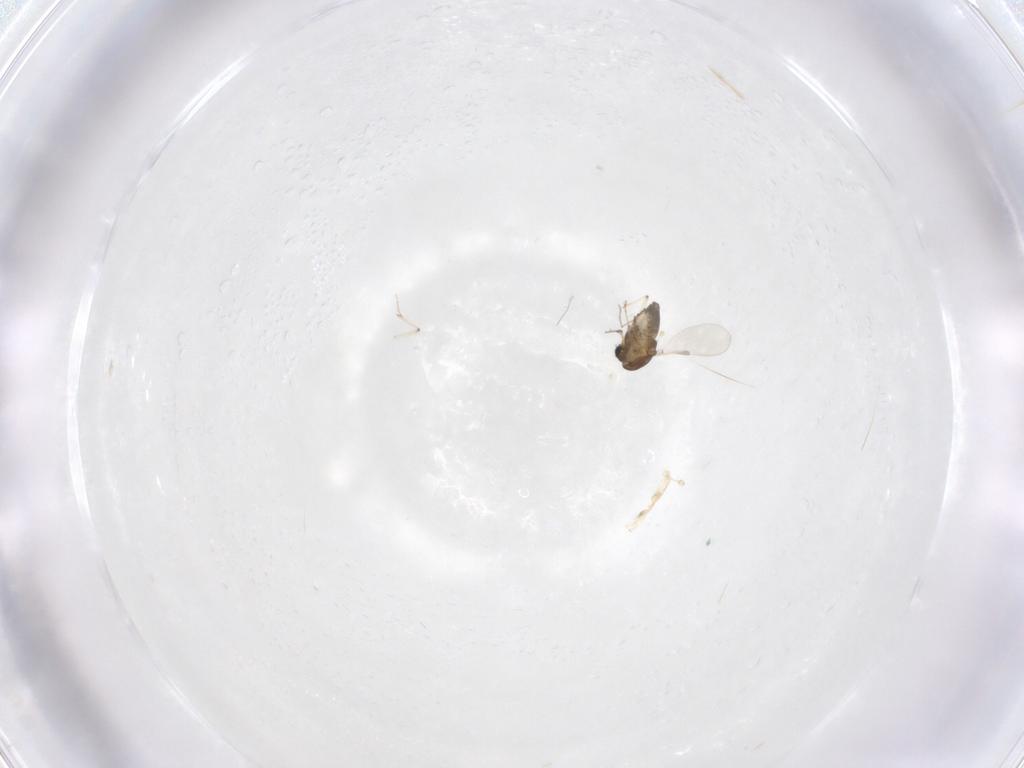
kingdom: Animalia
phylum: Arthropoda
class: Insecta
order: Diptera
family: Chironomidae
